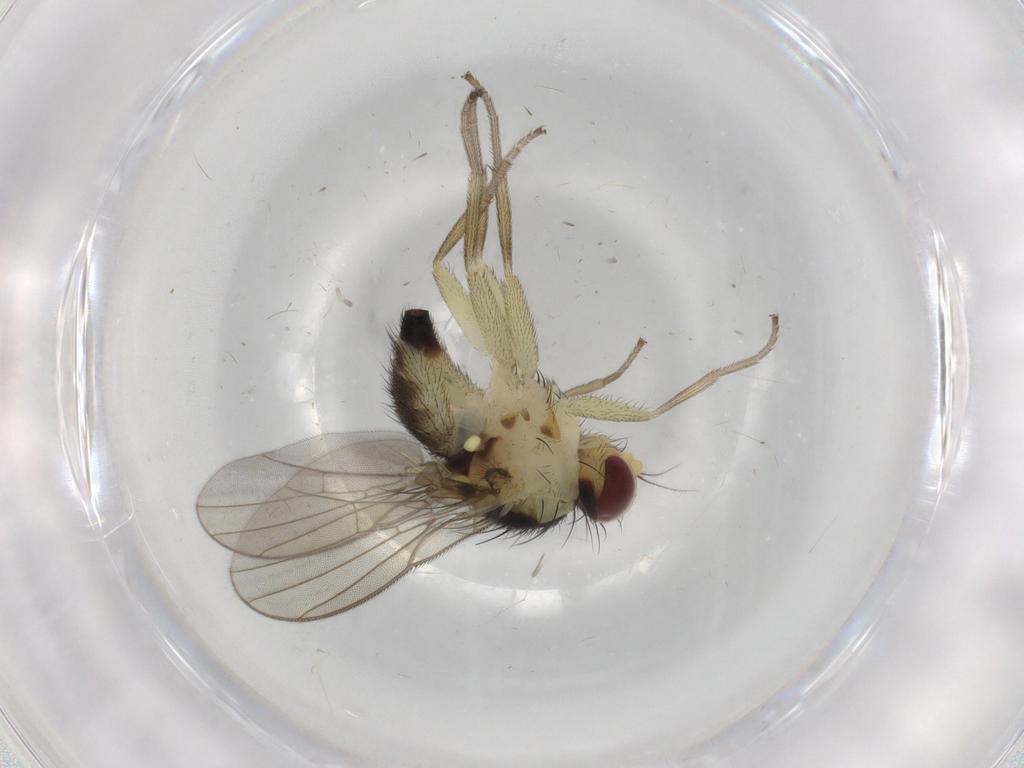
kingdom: Animalia
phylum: Arthropoda
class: Insecta
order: Diptera
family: Agromyzidae
